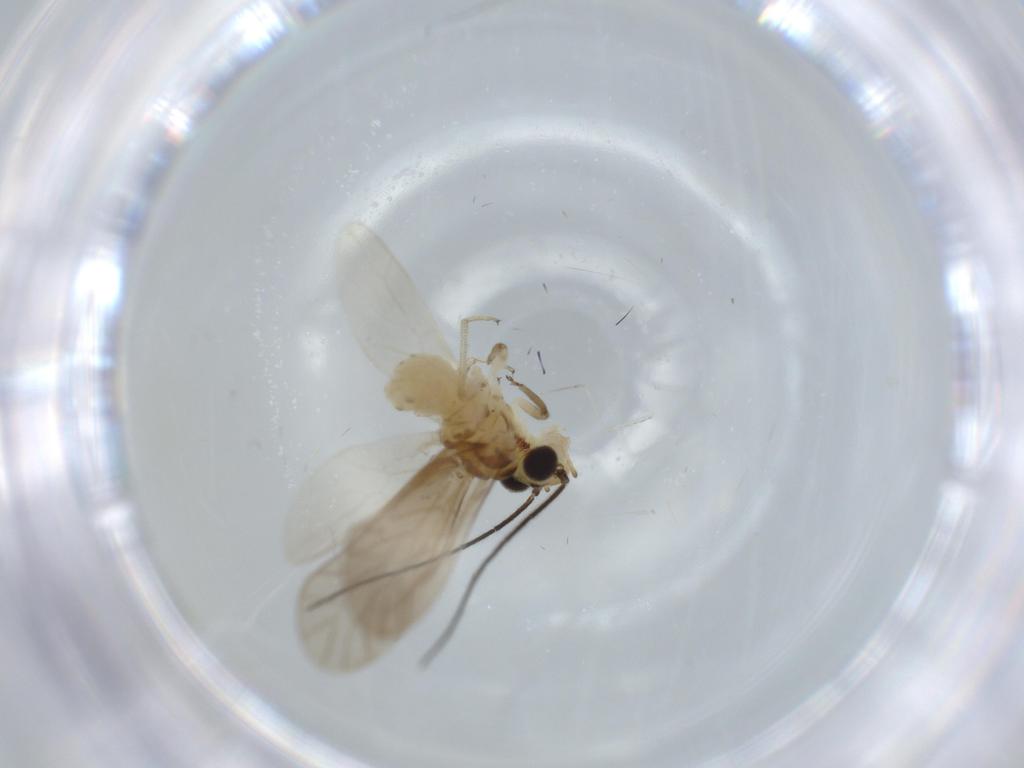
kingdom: Animalia
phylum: Arthropoda
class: Insecta
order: Psocodea
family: Caeciliusidae
